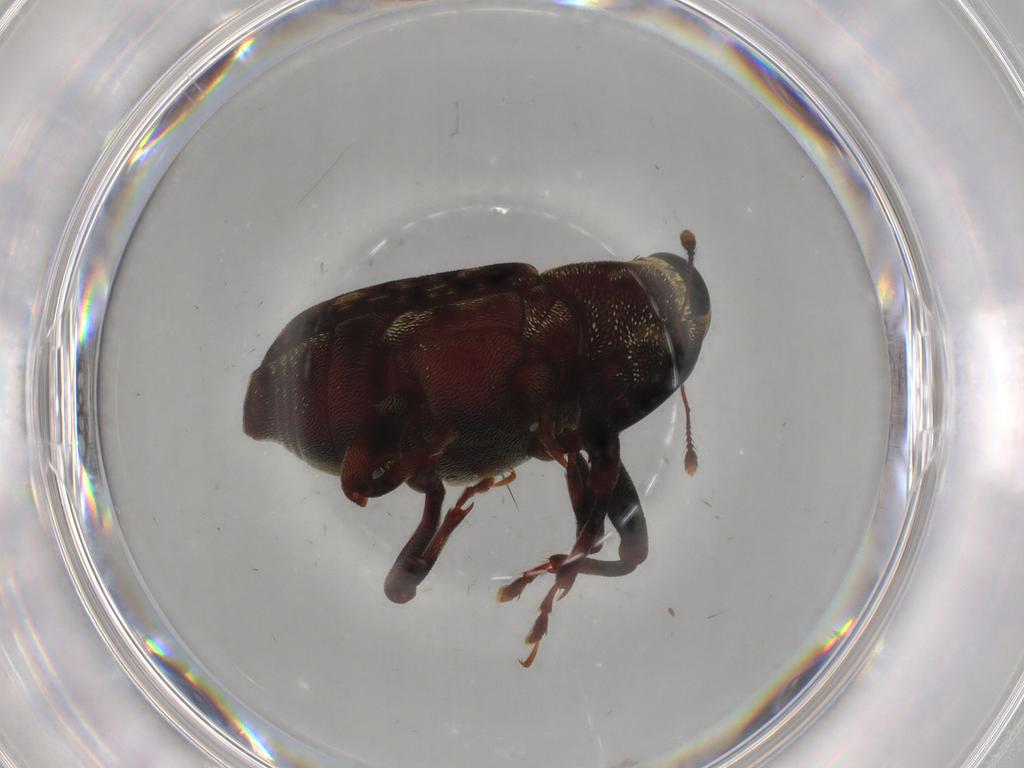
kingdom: Animalia
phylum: Arthropoda
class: Insecta
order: Coleoptera
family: Curculionidae
